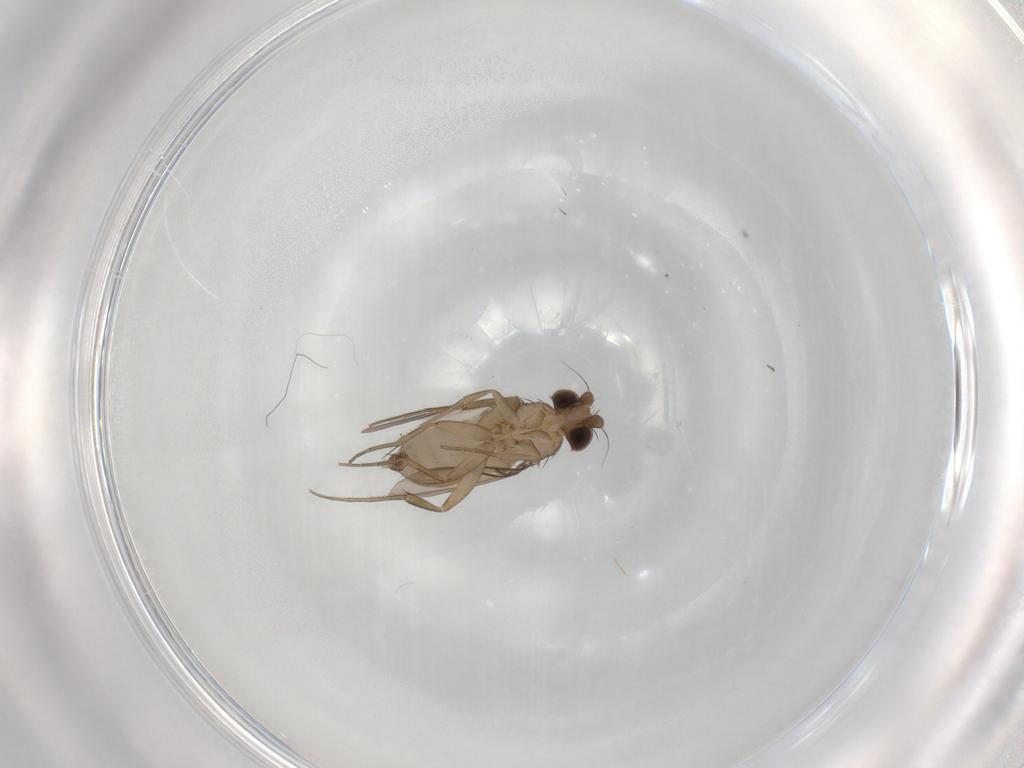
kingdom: Animalia
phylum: Arthropoda
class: Insecta
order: Diptera
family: Phoridae
